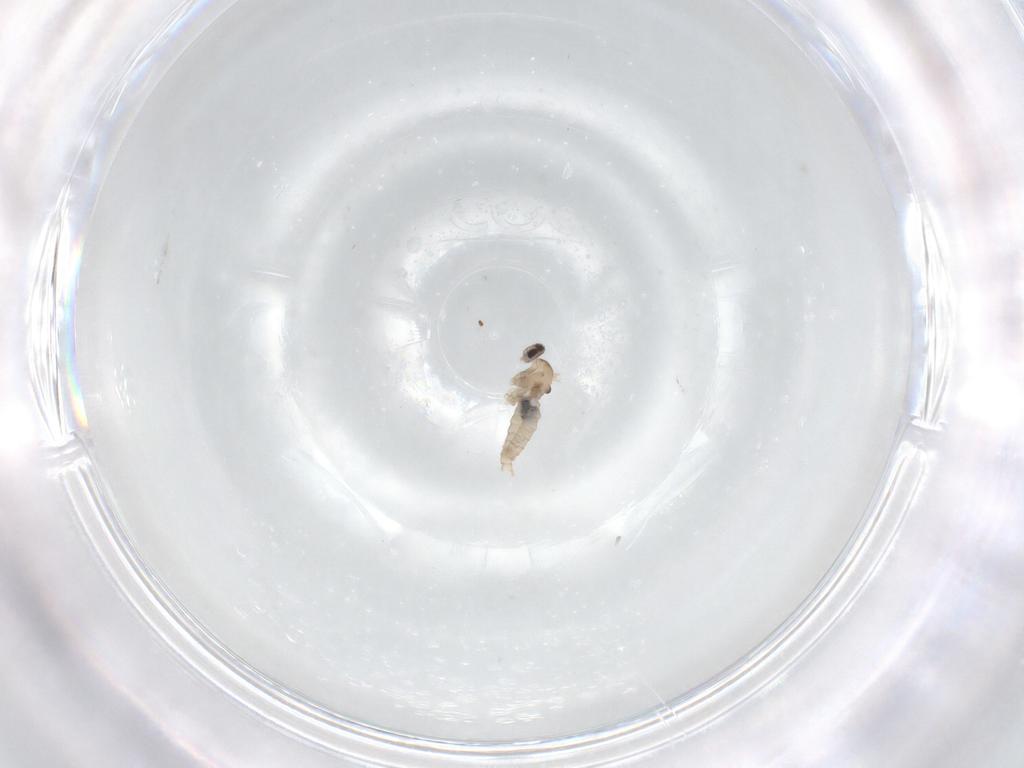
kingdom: Animalia
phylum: Arthropoda
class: Insecta
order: Diptera
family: Cecidomyiidae
